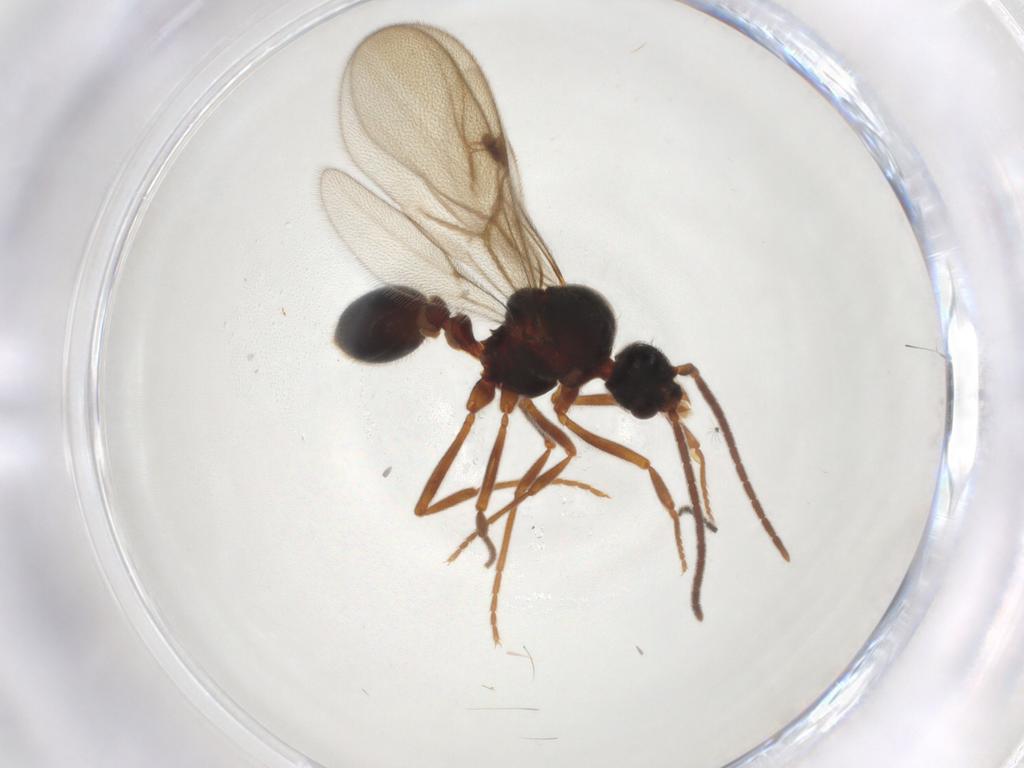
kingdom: Animalia
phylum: Arthropoda
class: Insecta
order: Hymenoptera
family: Formicidae
